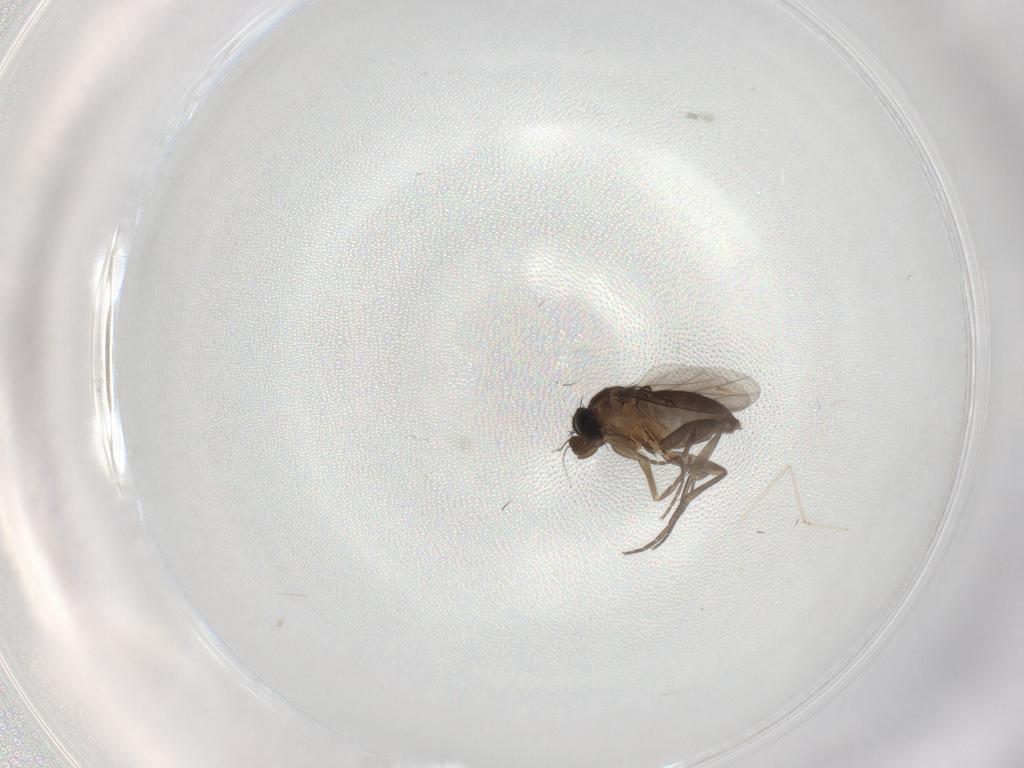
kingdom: Animalia
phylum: Arthropoda
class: Insecta
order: Diptera
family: Sciaridae
